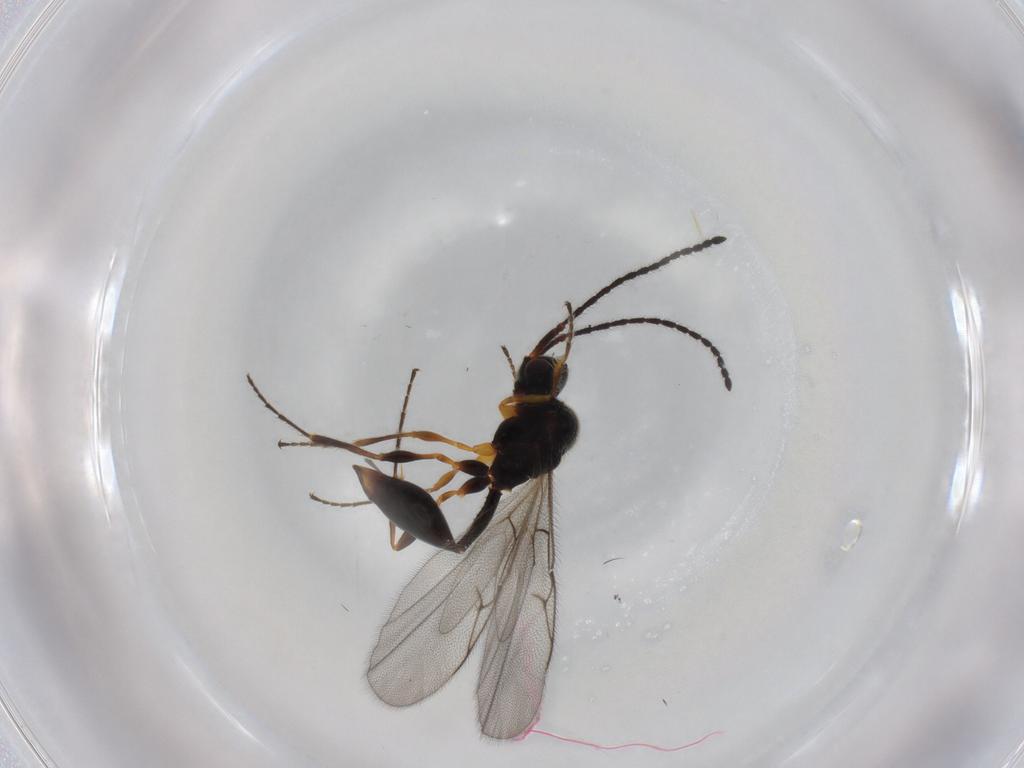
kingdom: Animalia
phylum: Arthropoda
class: Insecta
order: Hymenoptera
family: Diapriidae
